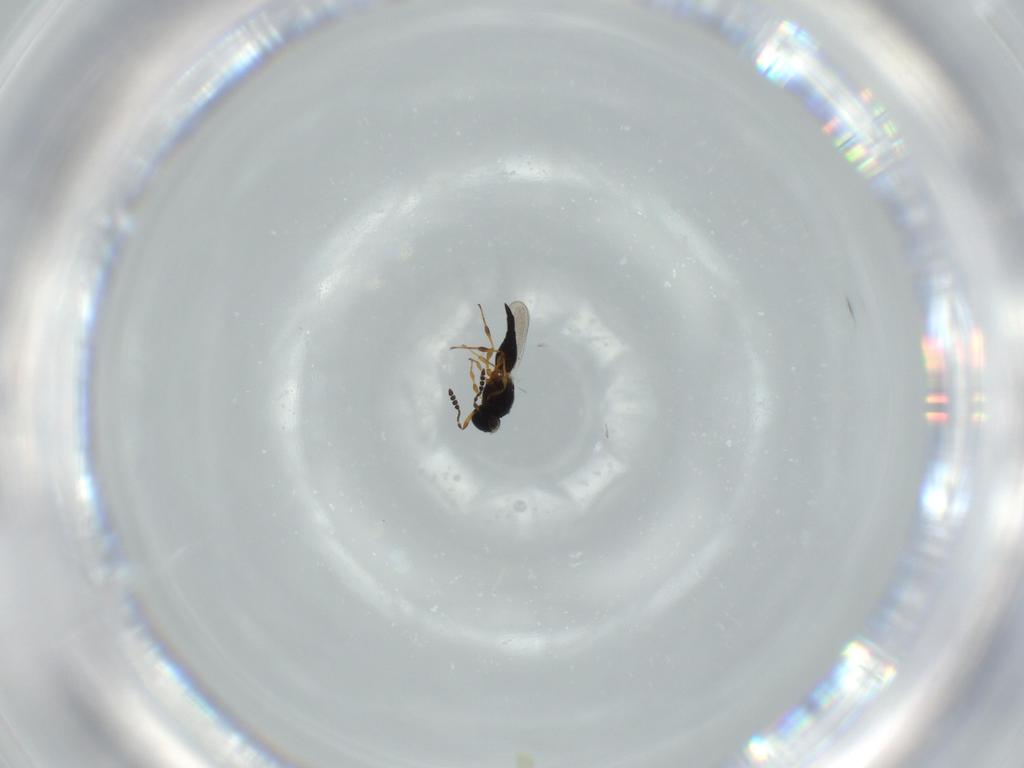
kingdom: Animalia
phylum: Arthropoda
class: Insecta
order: Hymenoptera
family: Platygastridae
